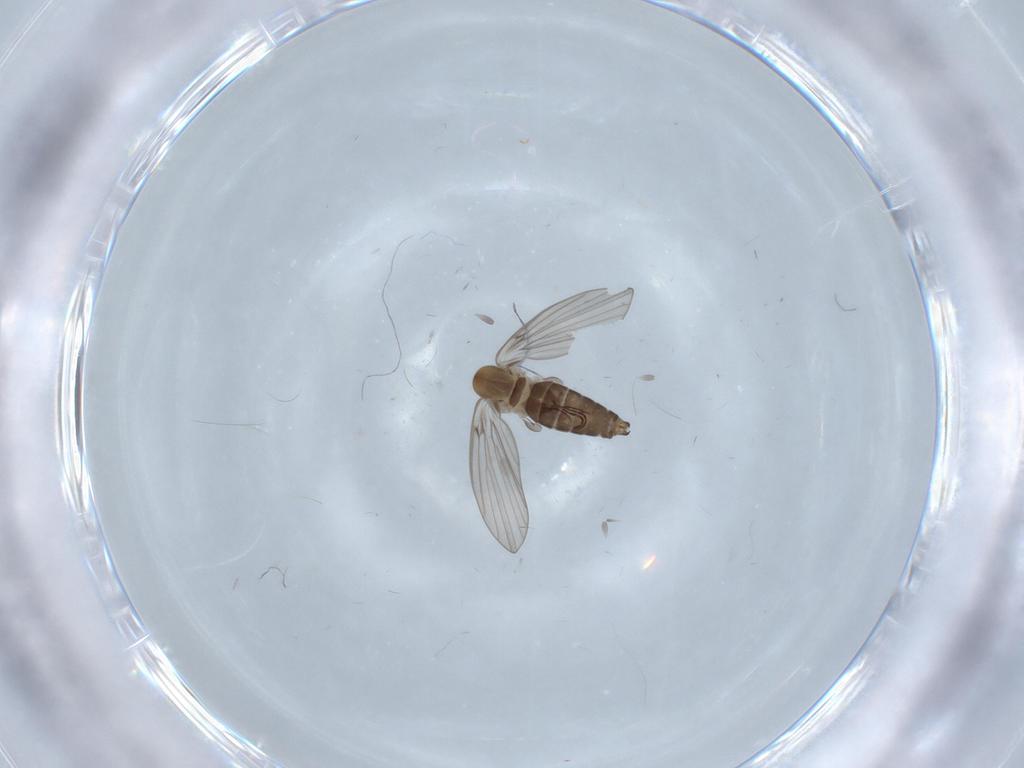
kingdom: Animalia
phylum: Arthropoda
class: Insecta
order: Diptera
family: Psychodidae
